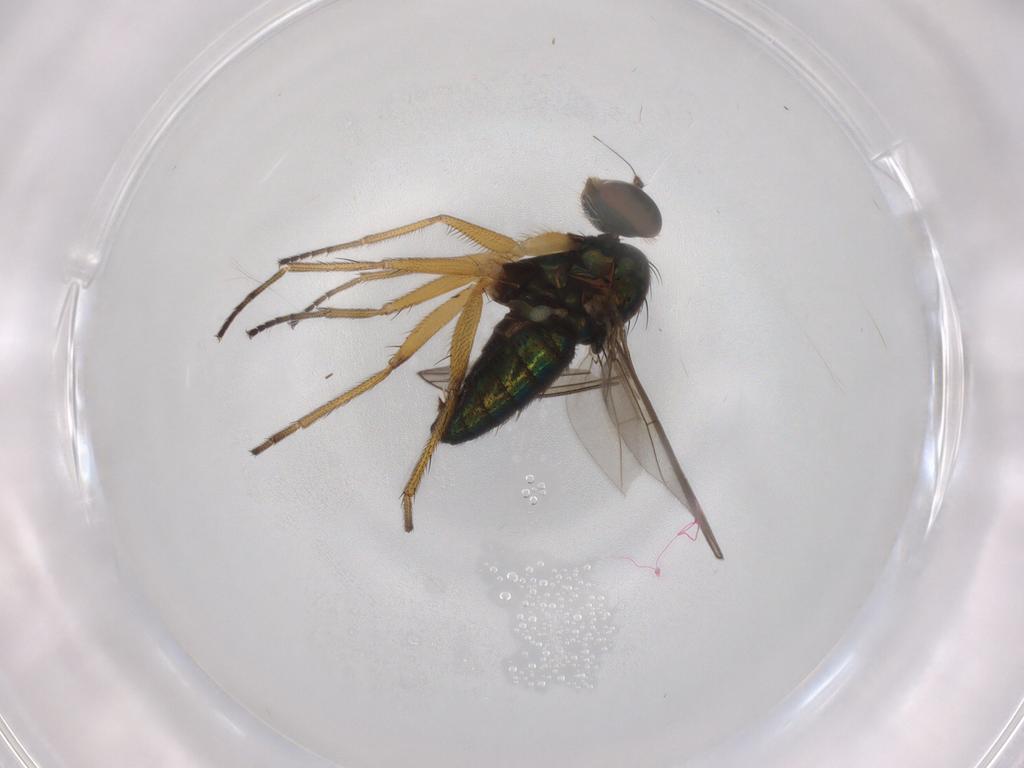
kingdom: Animalia
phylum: Arthropoda
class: Insecta
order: Diptera
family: Dolichopodidae
